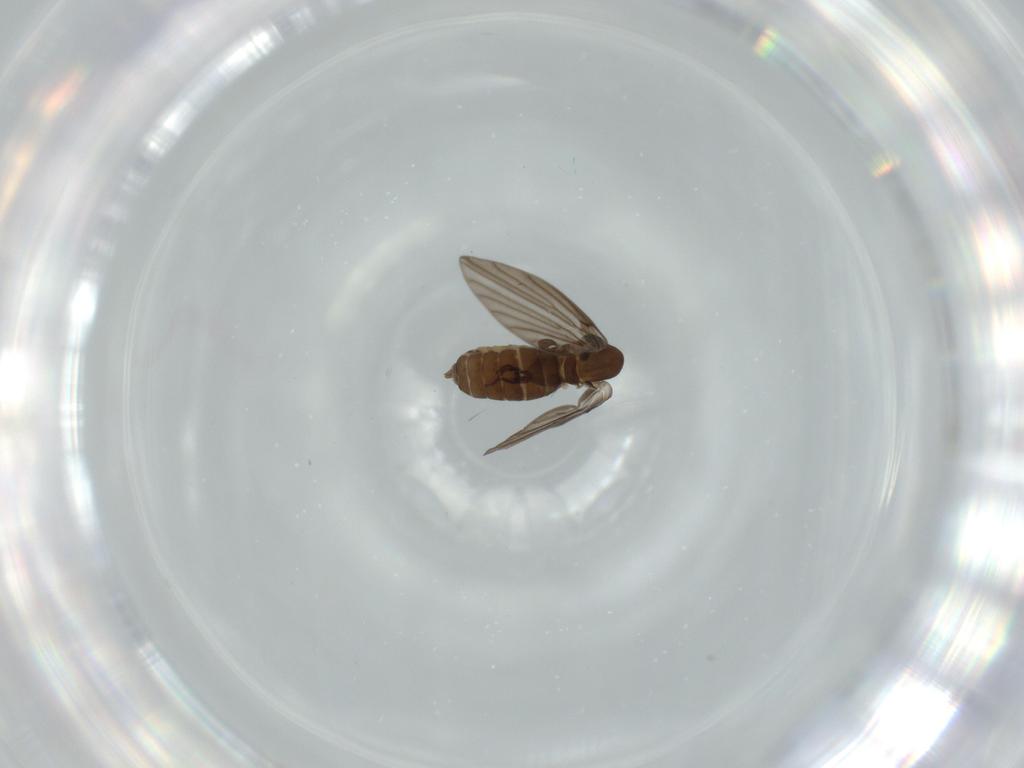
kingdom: Animalia
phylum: Arthropoda
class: Insecta
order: Diptera
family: Psychodidae
